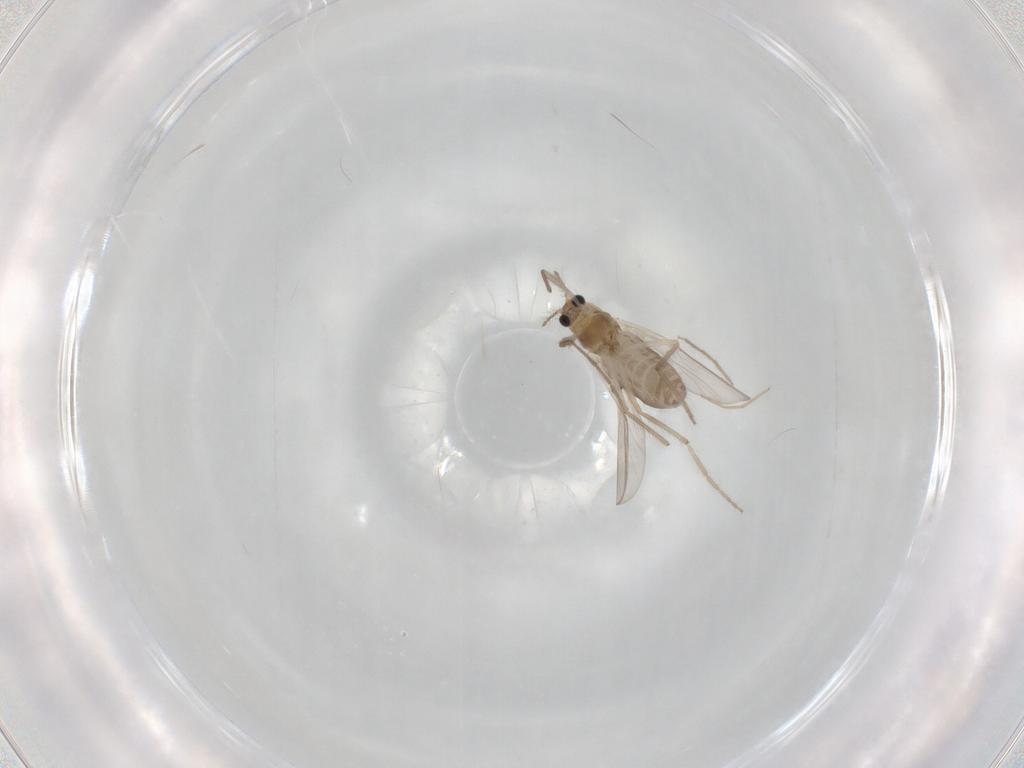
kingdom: Animalia
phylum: Arthropoda
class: Insecta
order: Diptera
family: Chironomidae
